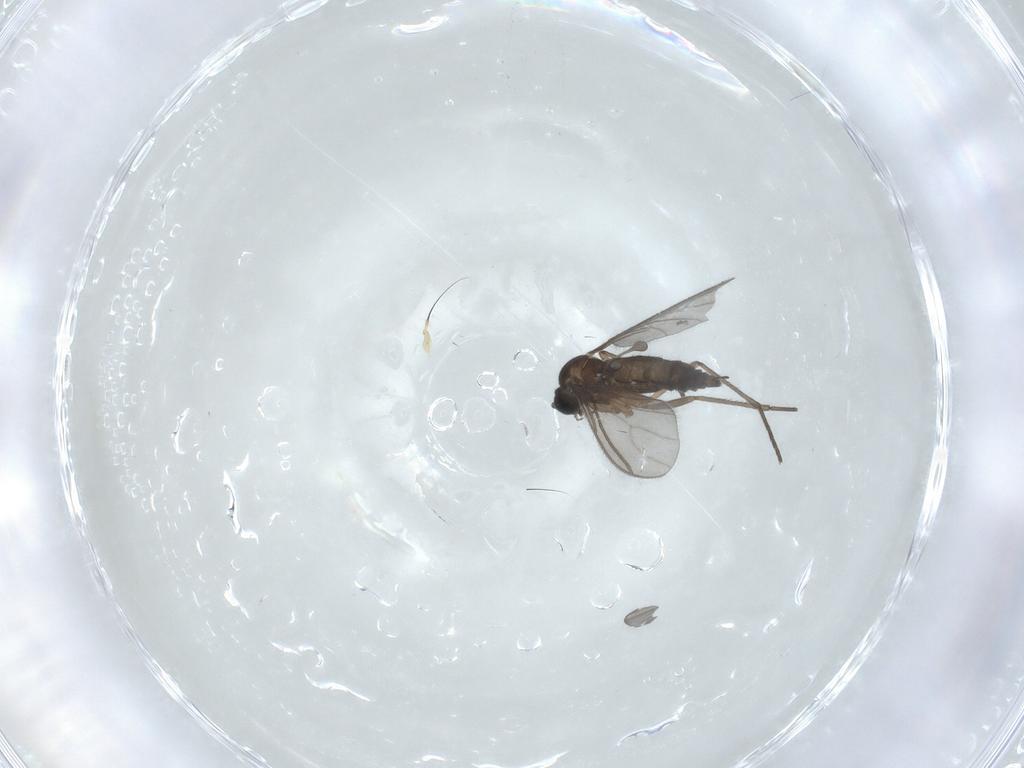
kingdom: Animalia
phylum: Arthropoda
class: Insecta
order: Diptera
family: Sciaridae
